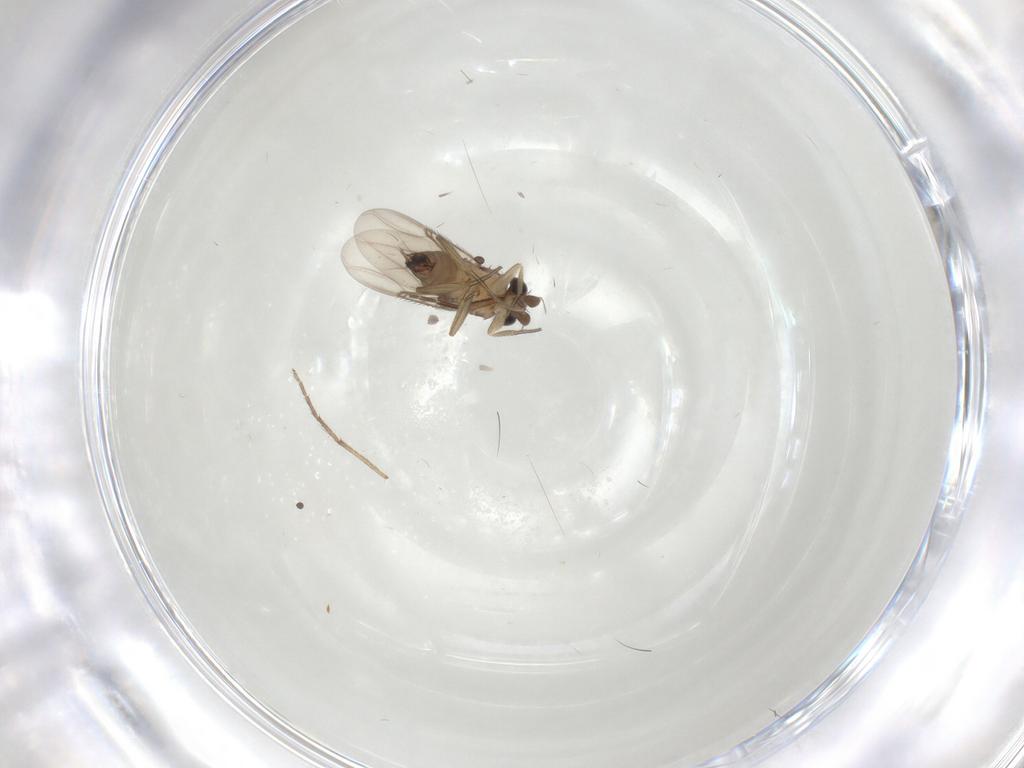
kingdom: Animalia
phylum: Arthropoda
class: Insecta
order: Diptera
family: Chironomidae
